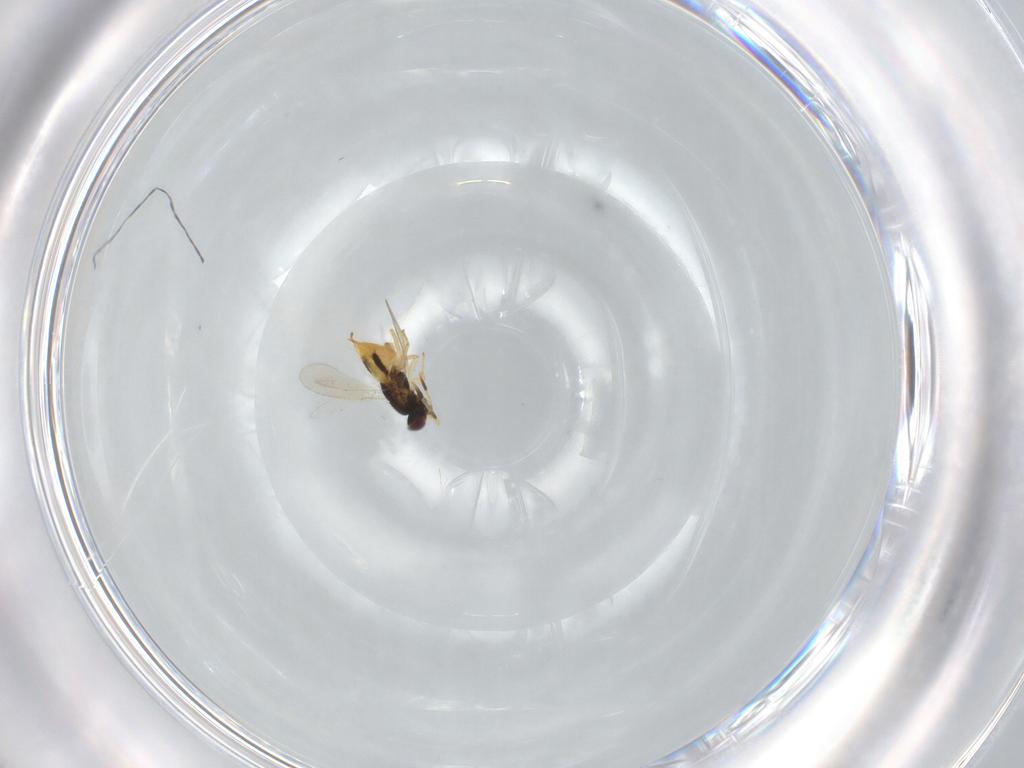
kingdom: Animalia
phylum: Arthropoda
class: Insecta
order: Hymenoptera
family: Aphelinidae
